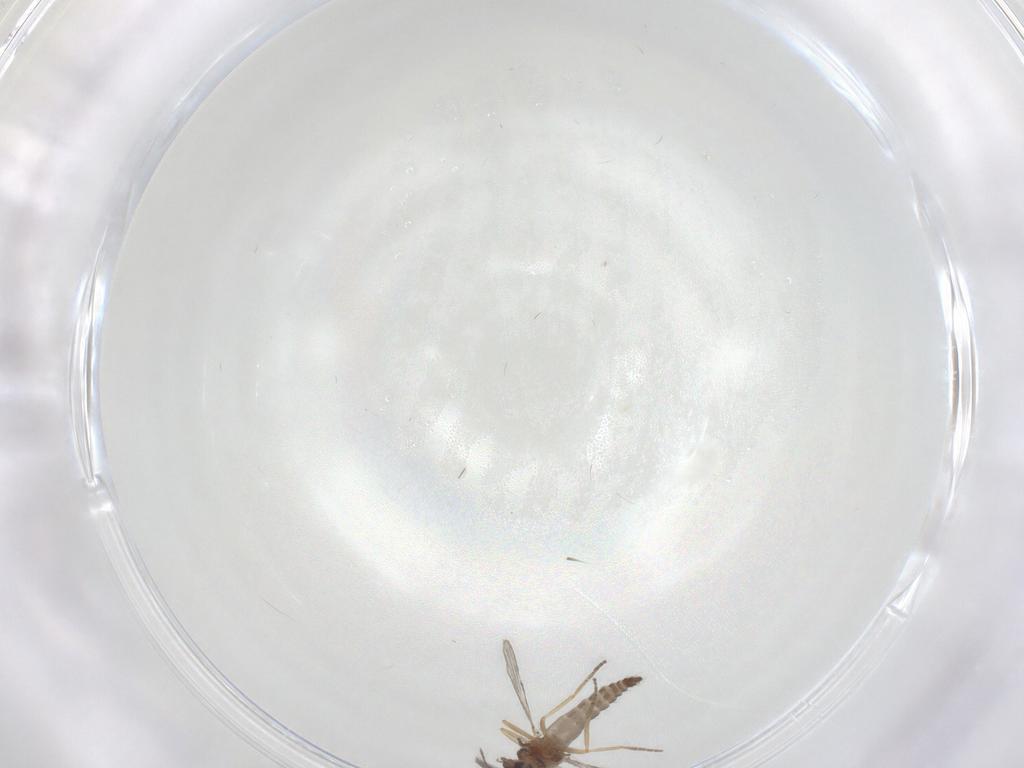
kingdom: Animalia
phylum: Arthropoda
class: Insecta
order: Diptera
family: Ceratopogonidae
